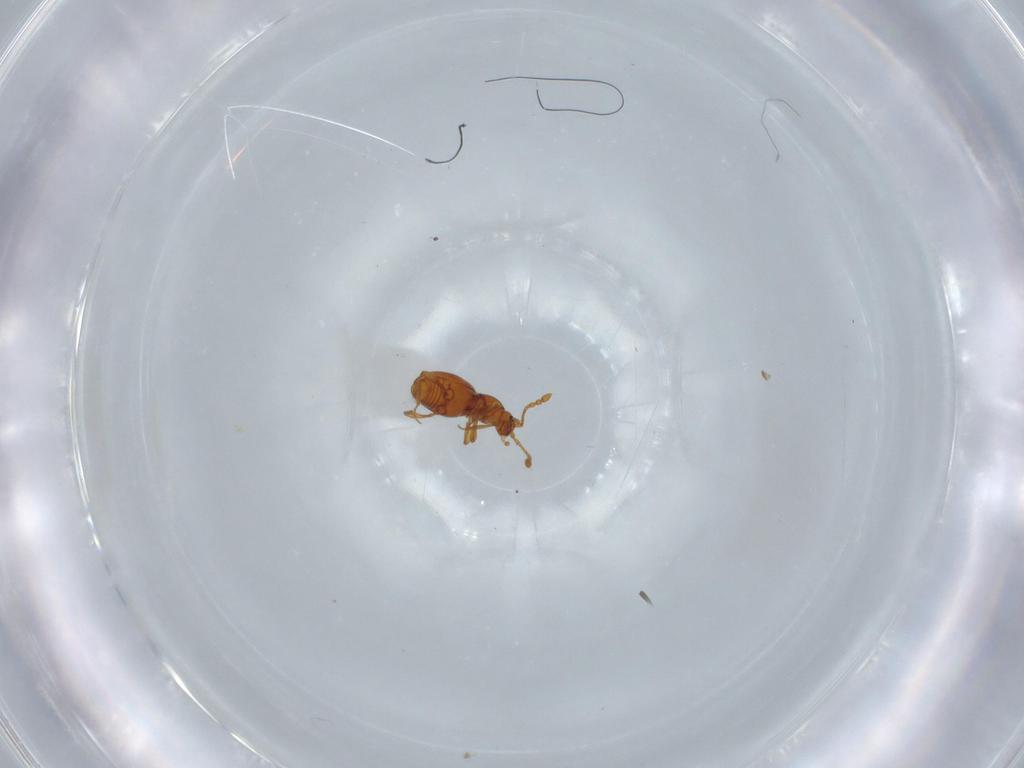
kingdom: Animalia
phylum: Arthropoda
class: Insecta
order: Coleoptera
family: Staphylinidae
